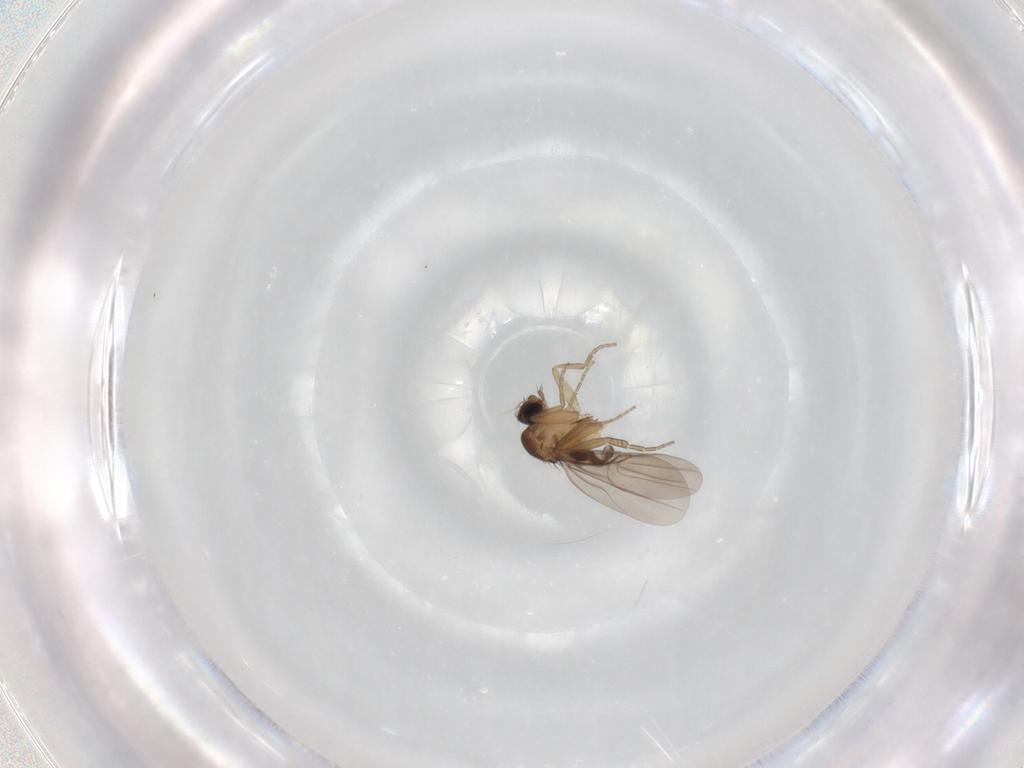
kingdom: Animalia
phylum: Arthropoda
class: Insecta
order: Diptera
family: Phoridae
